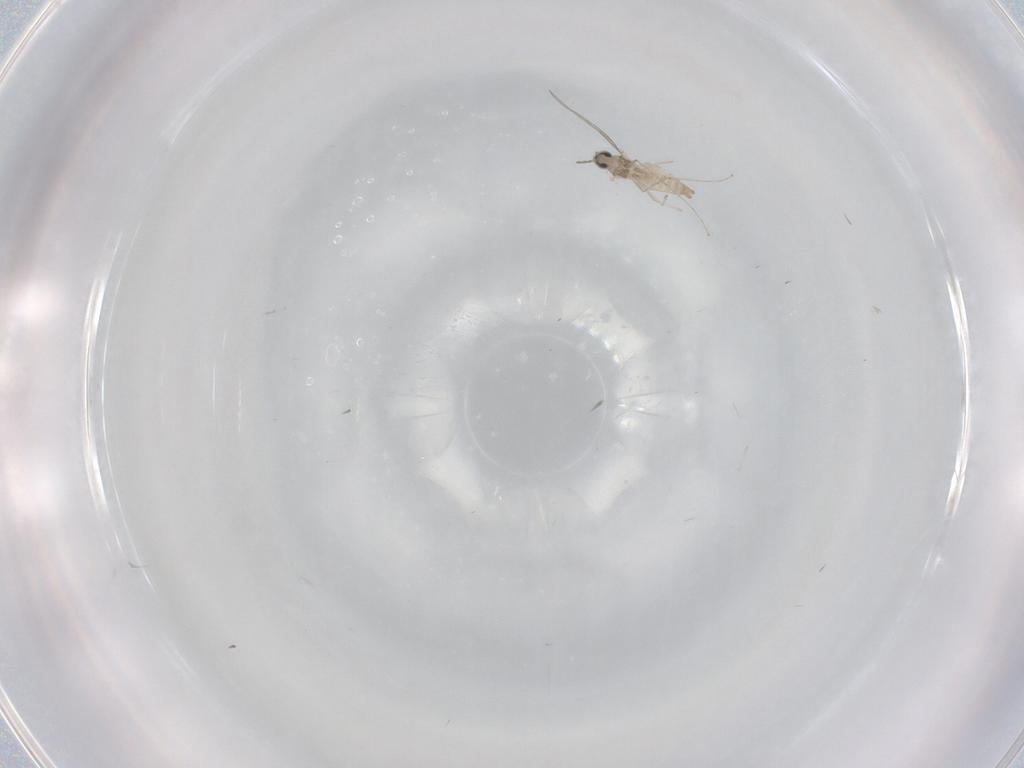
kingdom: Animalia
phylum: Arthropoda
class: Insecta
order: Diptera
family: Cecidomyiidae
